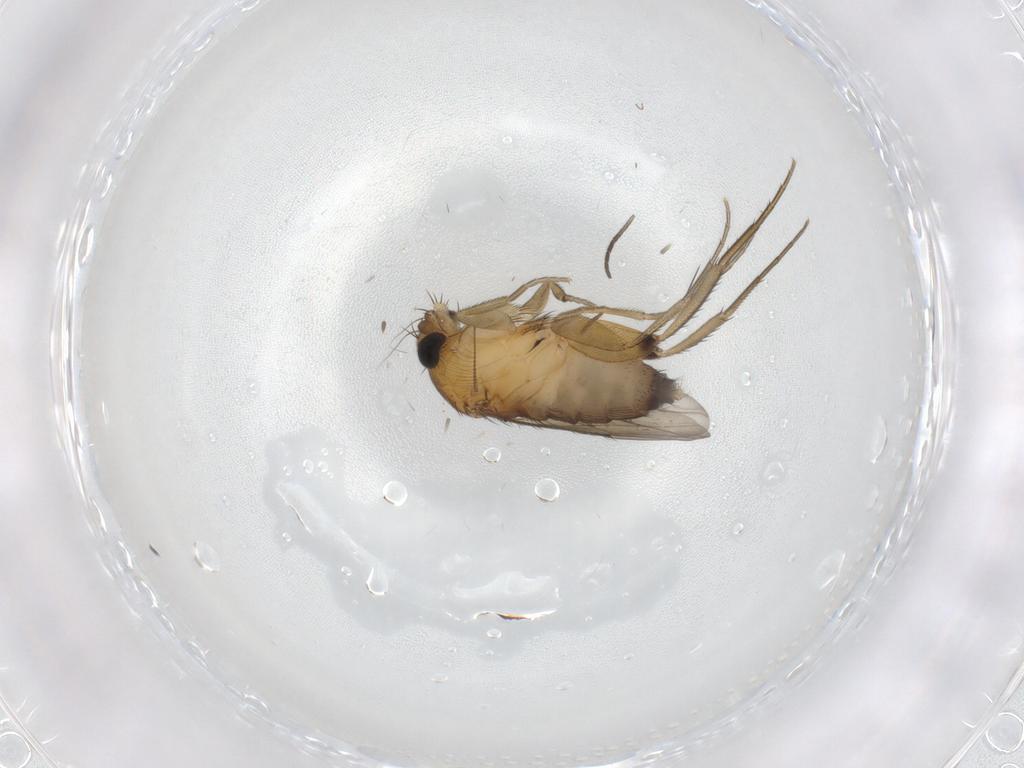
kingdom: Animalia
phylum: Arthropoda
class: Insecta
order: Diptera
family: Phoridae
